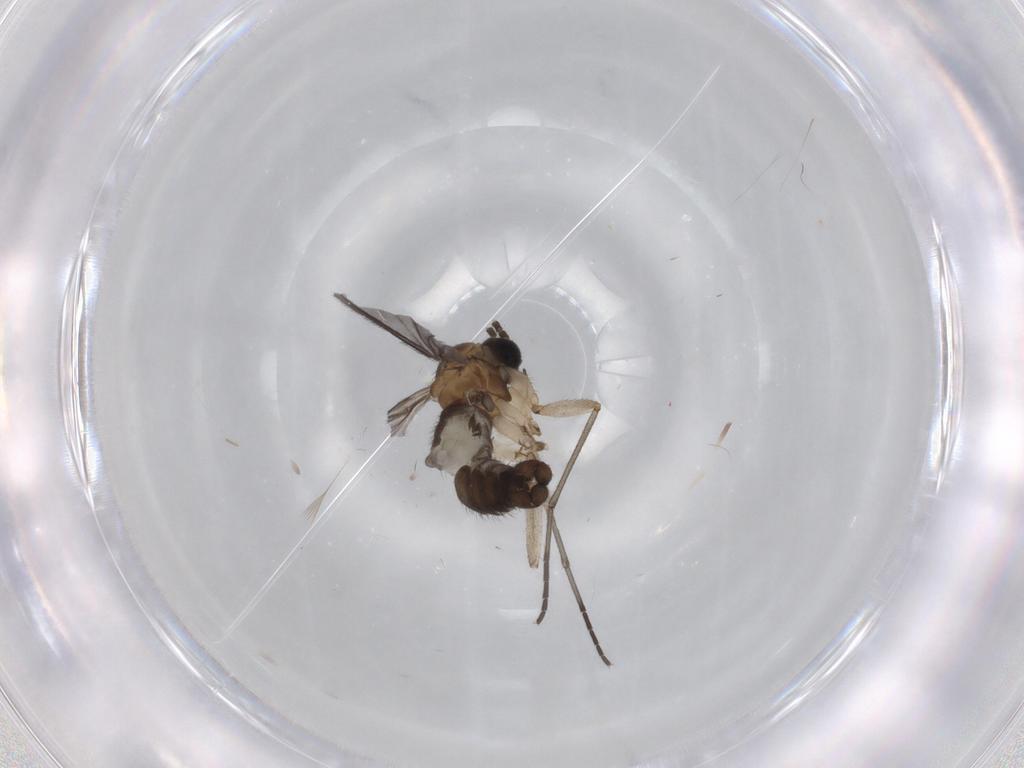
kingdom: Animalia
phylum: Arthropoda
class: Insecta
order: Diptera
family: Sciaridae
